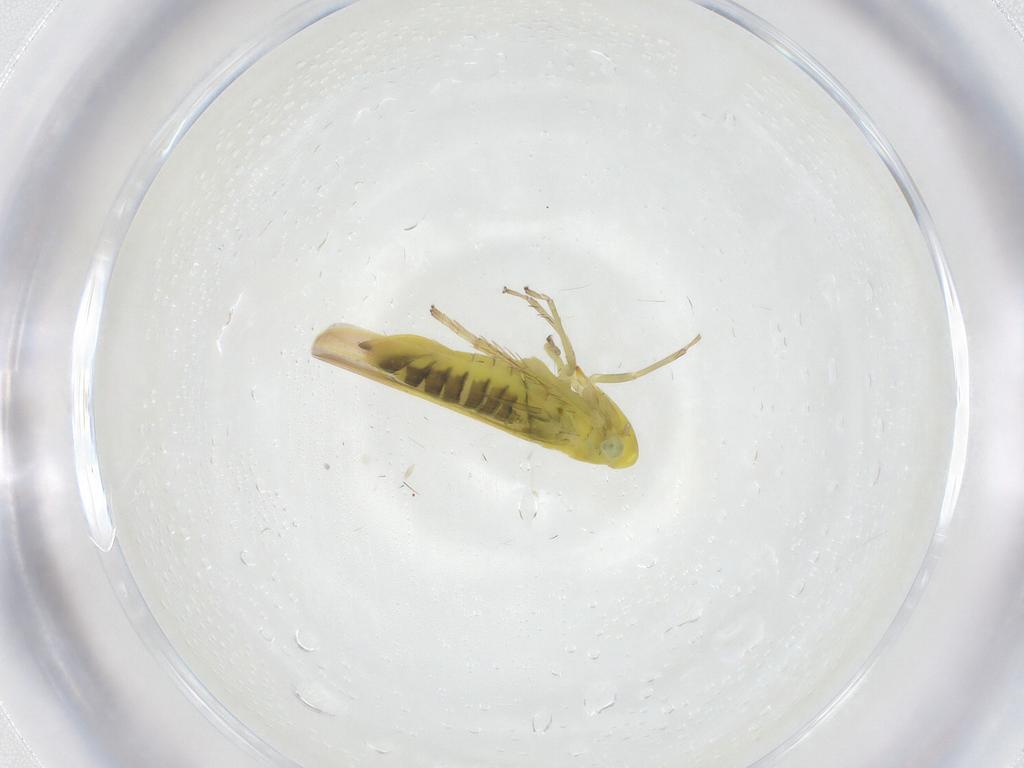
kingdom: Animalia
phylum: Arthropoda
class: Insecta
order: Hemiptera
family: Cicadellidae
